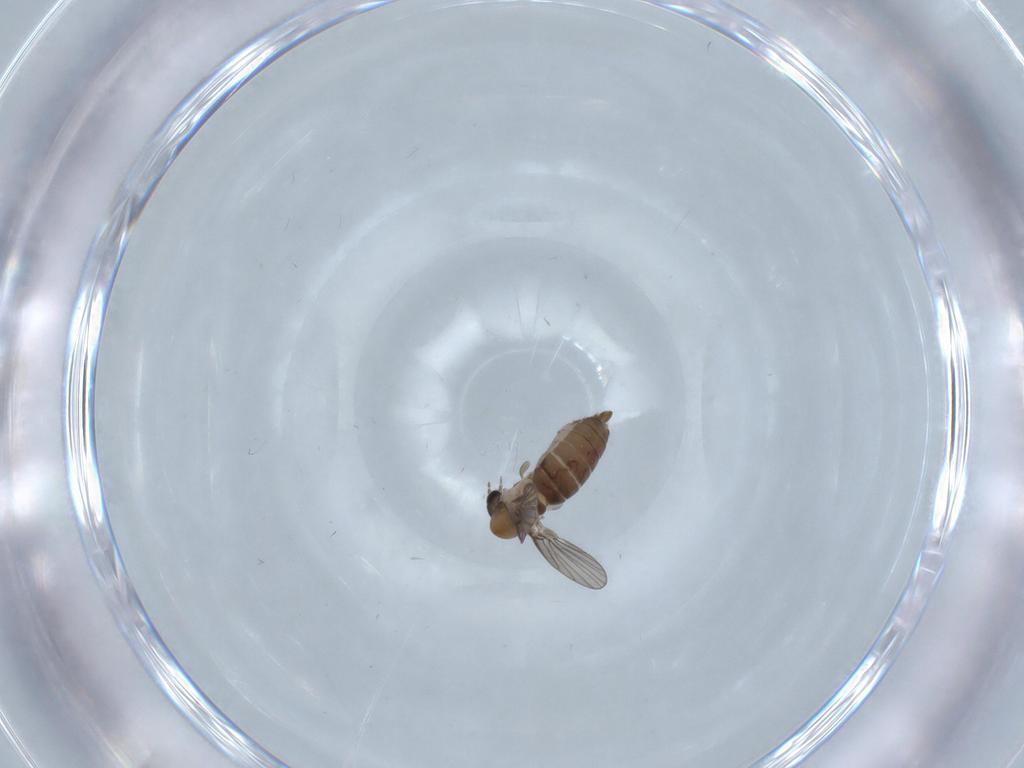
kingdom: Animalia
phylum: Arthropoda
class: Insecta
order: Diptera
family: Psychodidae
